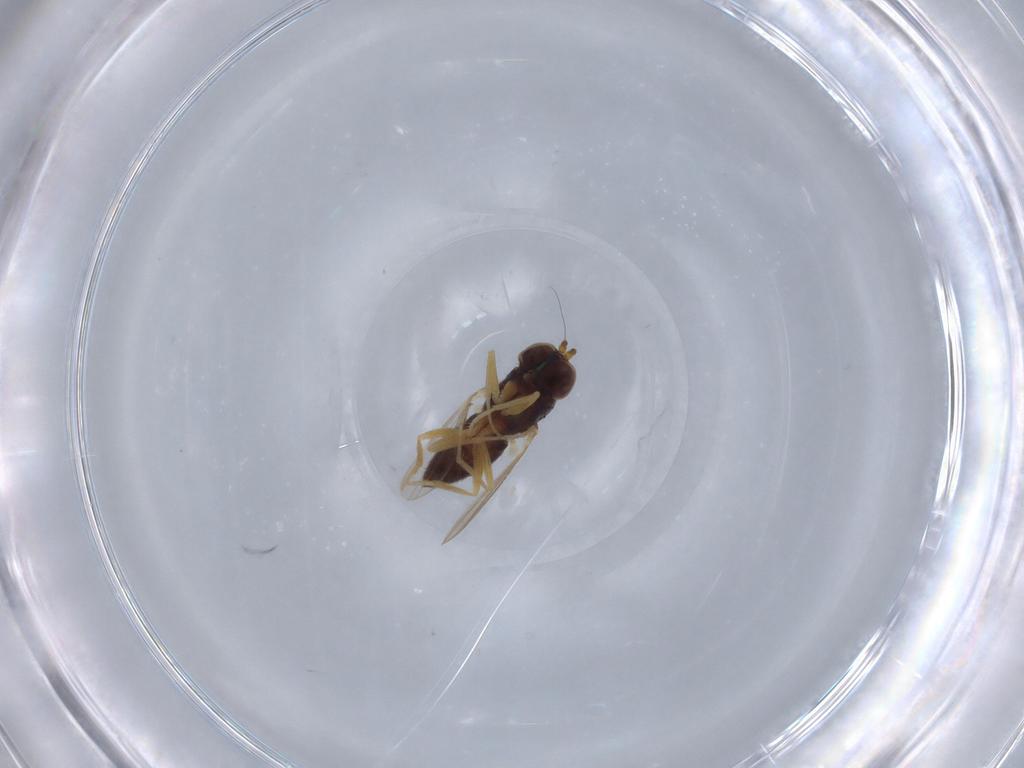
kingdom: Animalia
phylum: Arthropoda
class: Insecta
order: Diptera
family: Dolichopodidae
